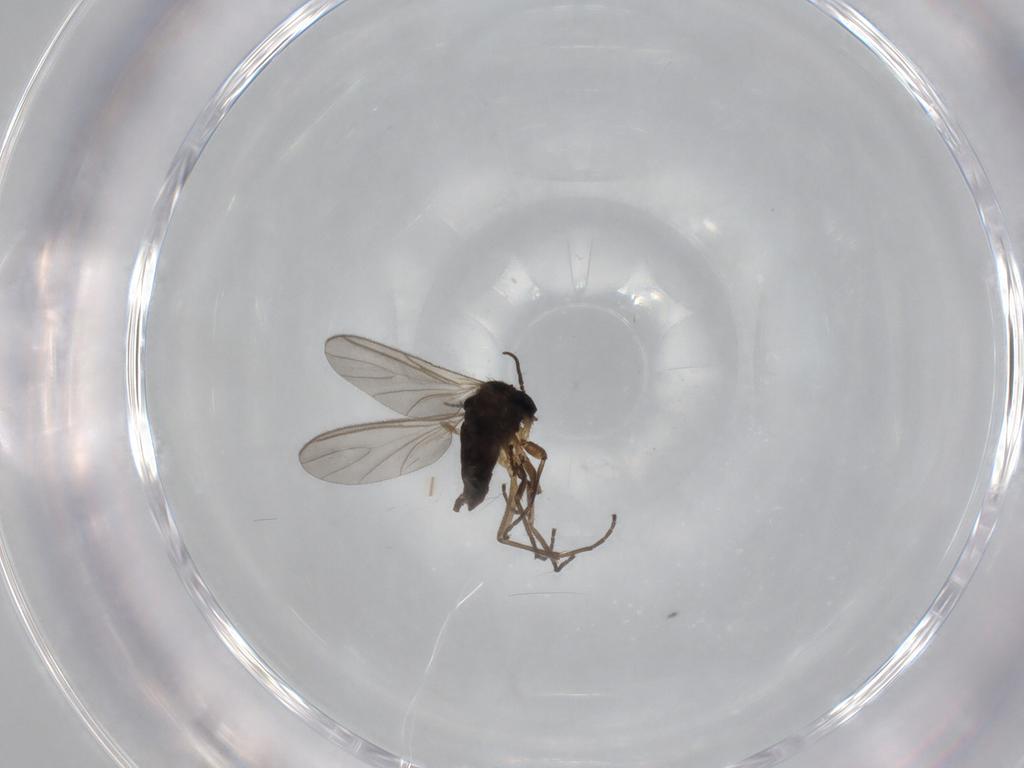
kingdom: Animalia
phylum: Arthropoda
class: Insecta
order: Diptera
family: Sciaridae
